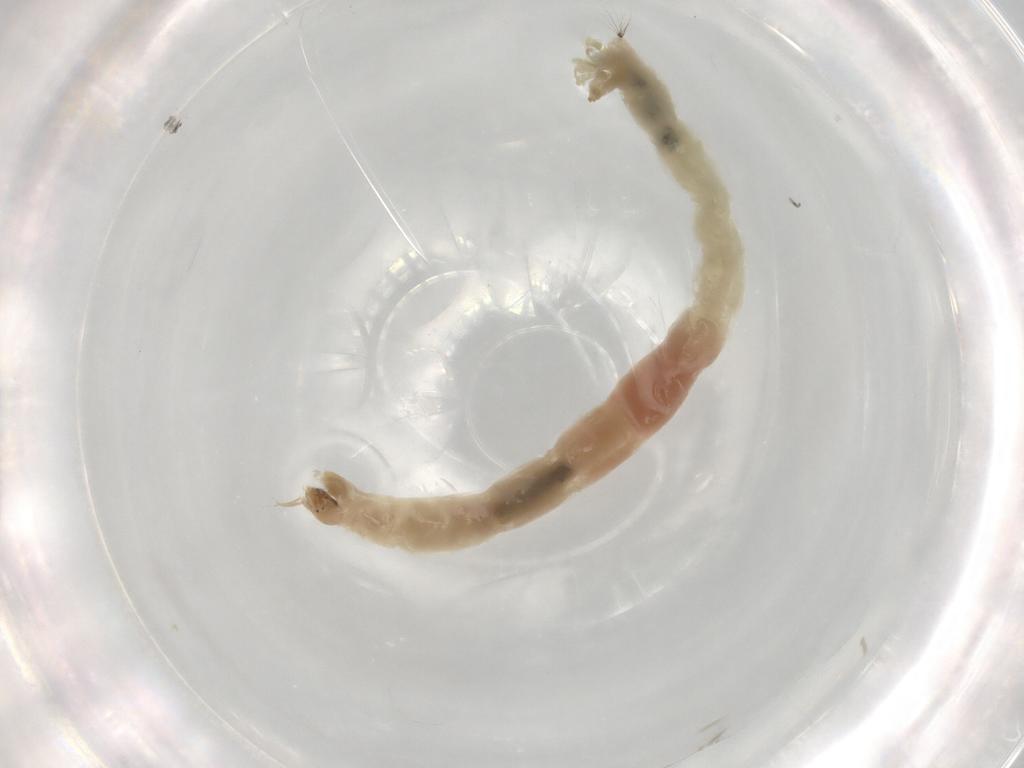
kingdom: Animalia
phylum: Arthropoda
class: Insecta
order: Diptera
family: Chironomidae
